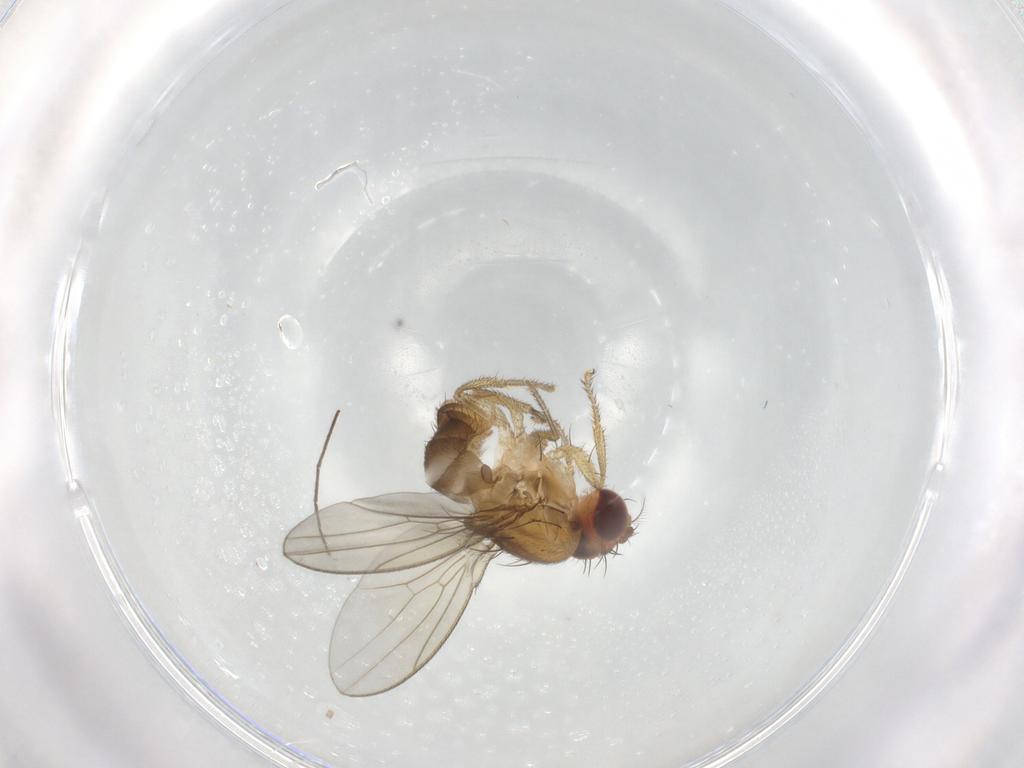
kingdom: Animalia
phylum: Arthropoda
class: Insecta
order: Diptera
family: Drosophilidae
